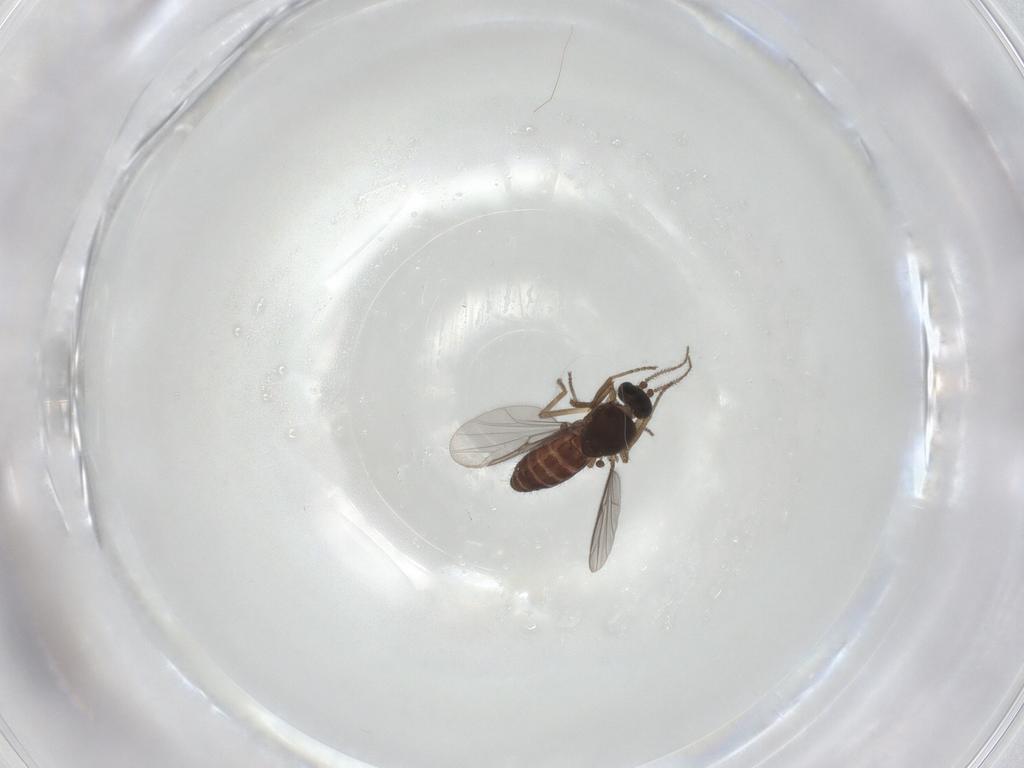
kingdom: Animalia
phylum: Arthropoda
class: Insecta
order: Diptera
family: Ceratopogonidae
